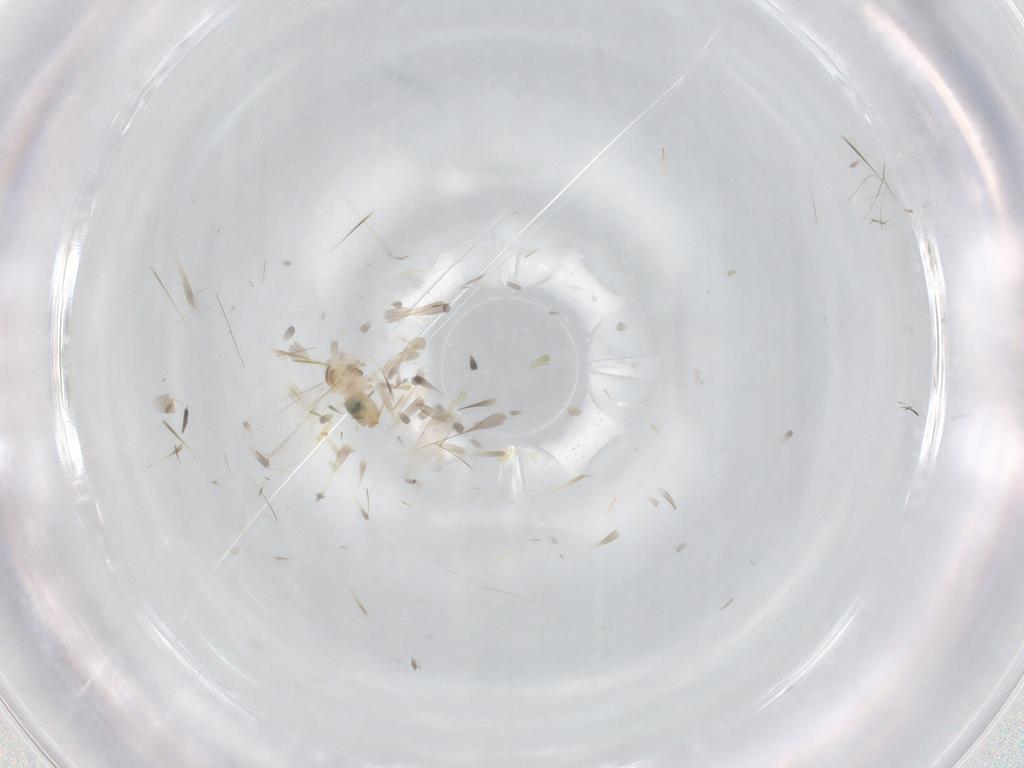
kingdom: Animalia
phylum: Arthropoda
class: Insecta
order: Diptera
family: Cecidomyiidae
